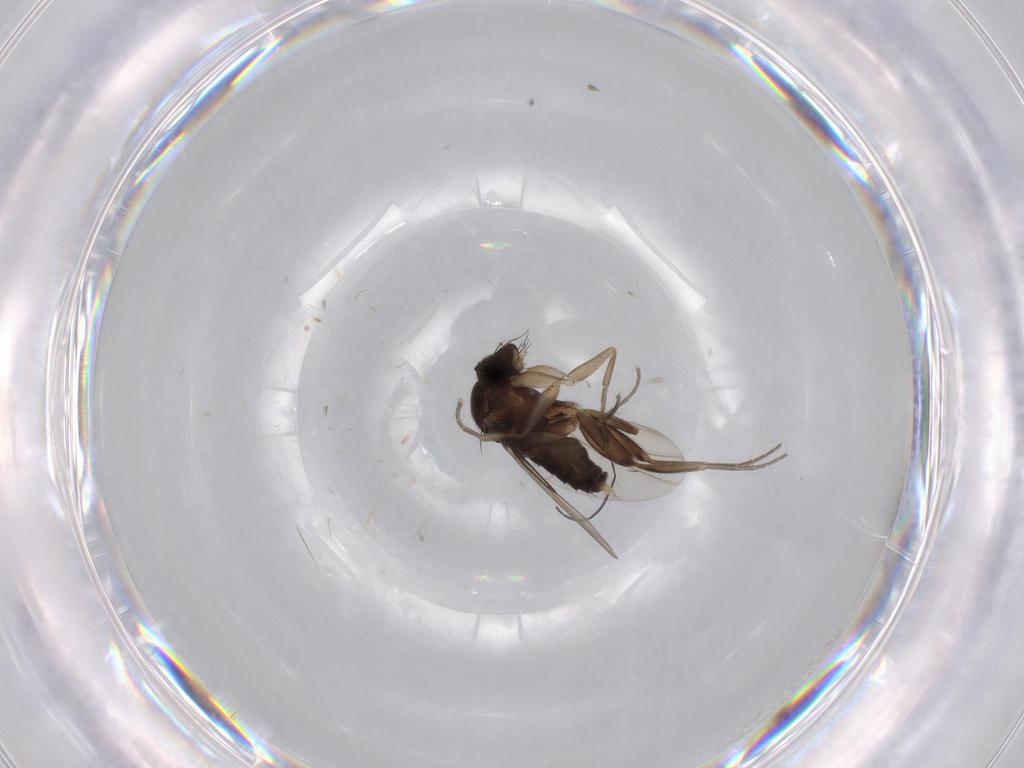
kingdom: Animalia
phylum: Arthropoda
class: Insecta
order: Diptera
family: Phoridae
